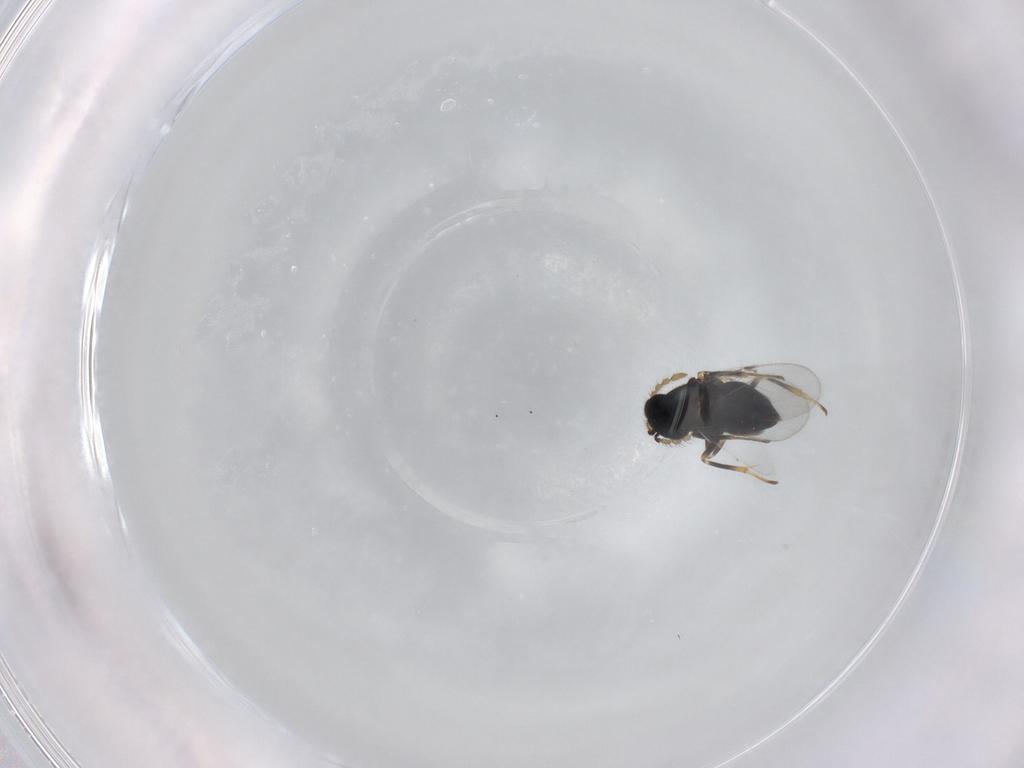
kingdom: Animalia
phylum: Arthropoda
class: Insecta
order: Hymenoptera
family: Encyrtidae
